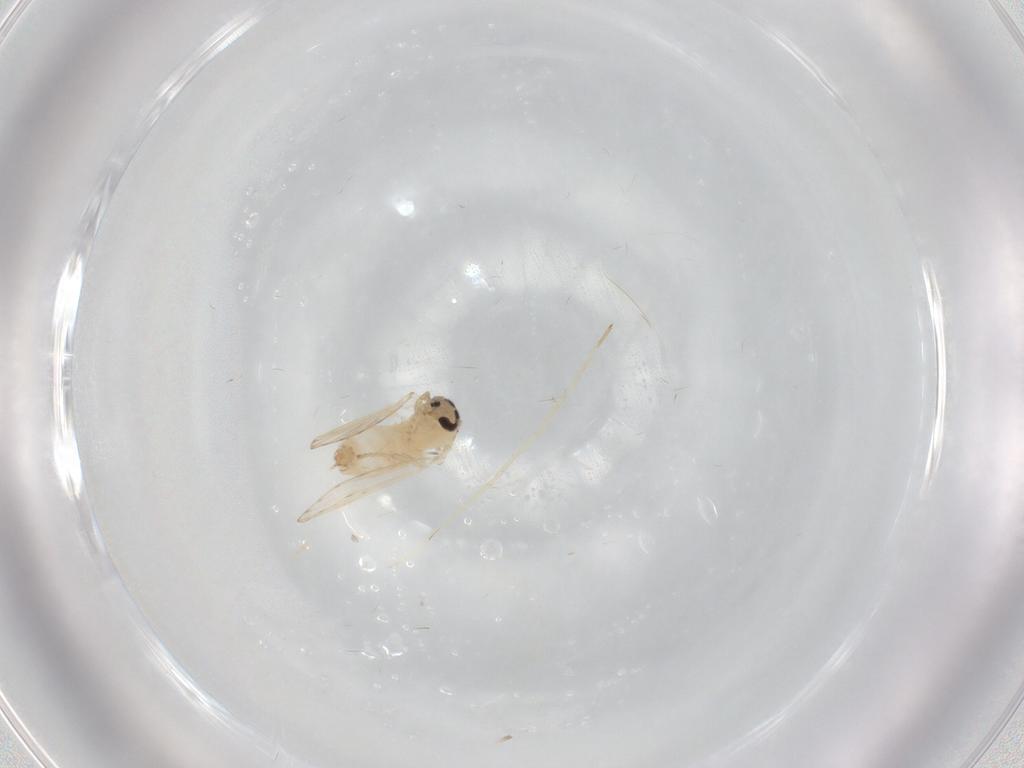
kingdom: Animalia
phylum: Arthropoda
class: Insecta
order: Diptera
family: Psychodidae
